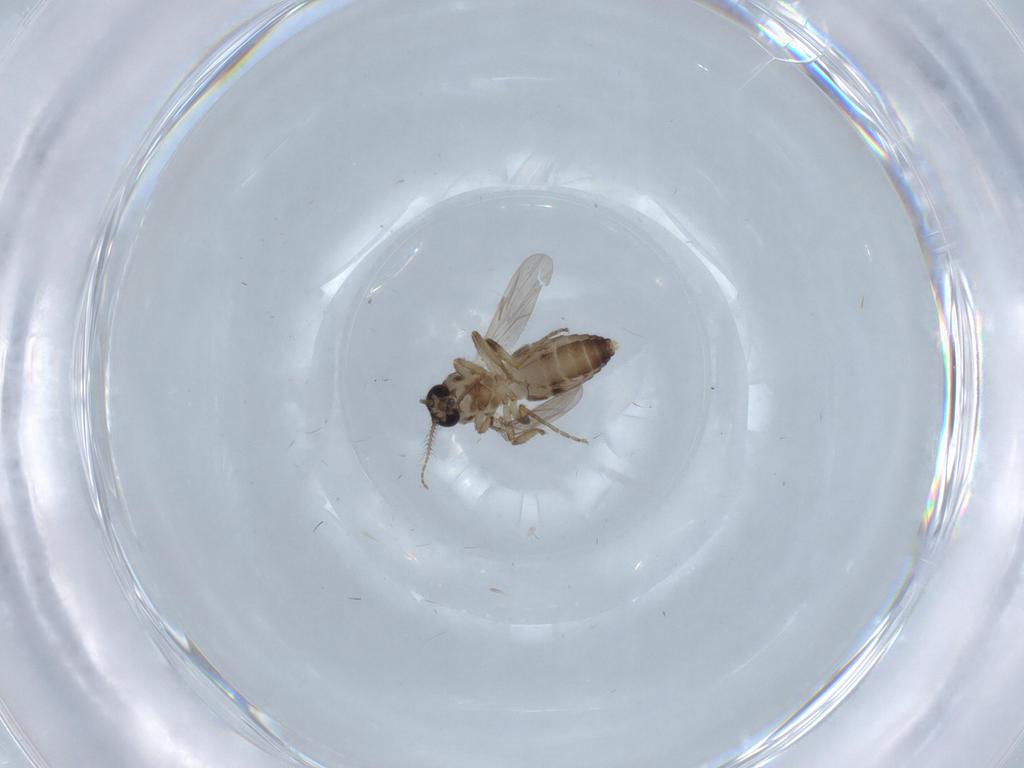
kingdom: Animalia
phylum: Arthropoda
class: Insecta
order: Diptera
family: Ceratopogonidae
